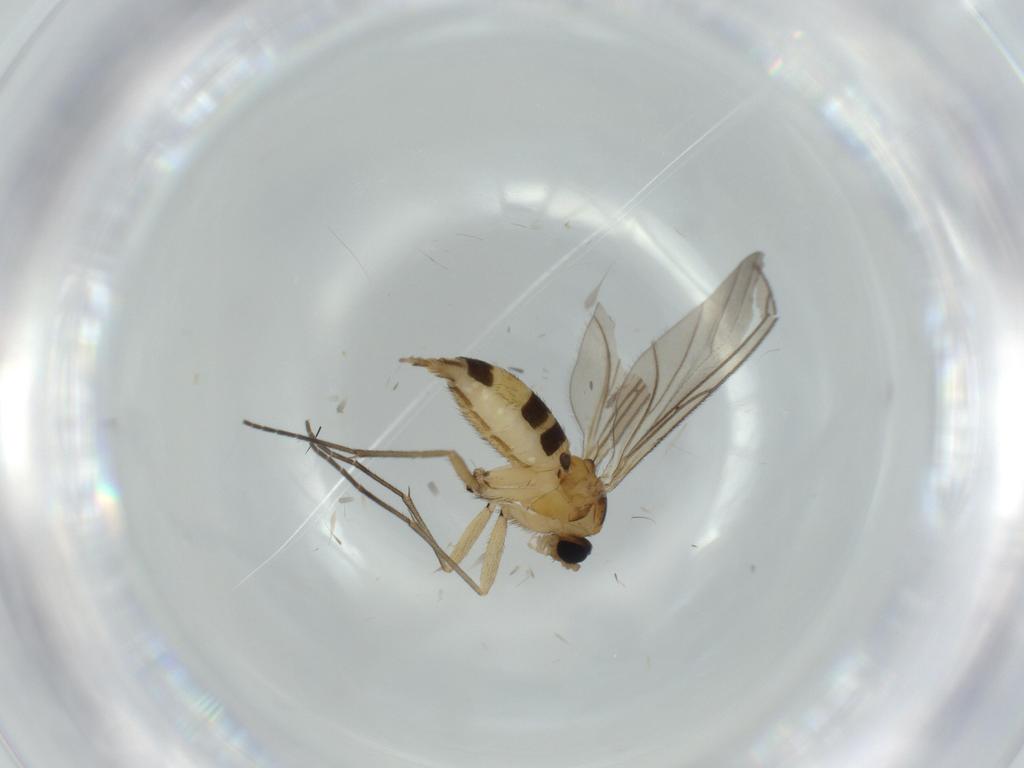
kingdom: Animalia
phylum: Arthropoda
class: Insecta
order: Diptera
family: Sciaridae
